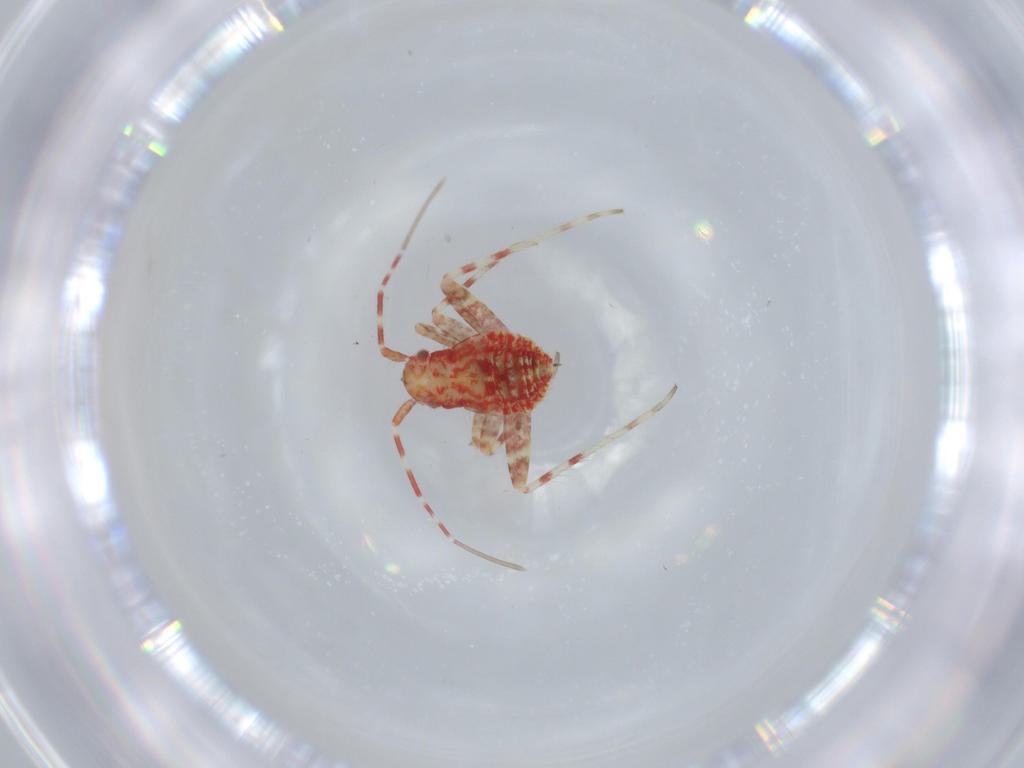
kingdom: Animalia
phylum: Arthropoda
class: Insecta
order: Hemiptera
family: Miridae
